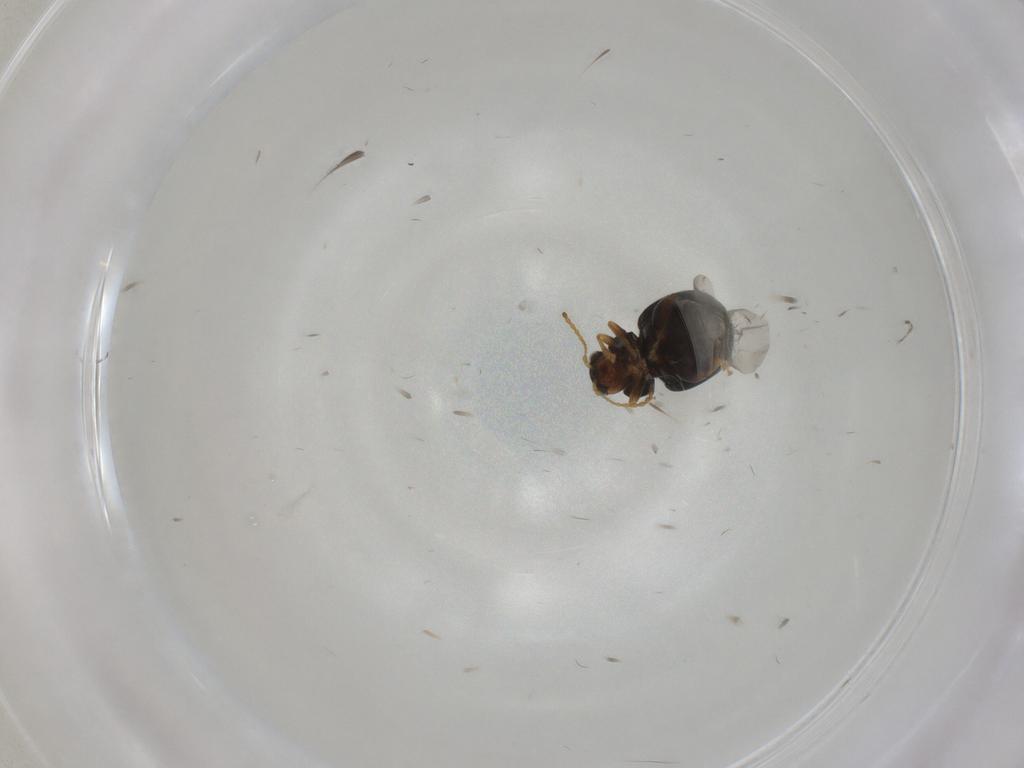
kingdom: Animalia
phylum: Arthropoda
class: Insecta
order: Coleoptera
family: Chrysomelidae
